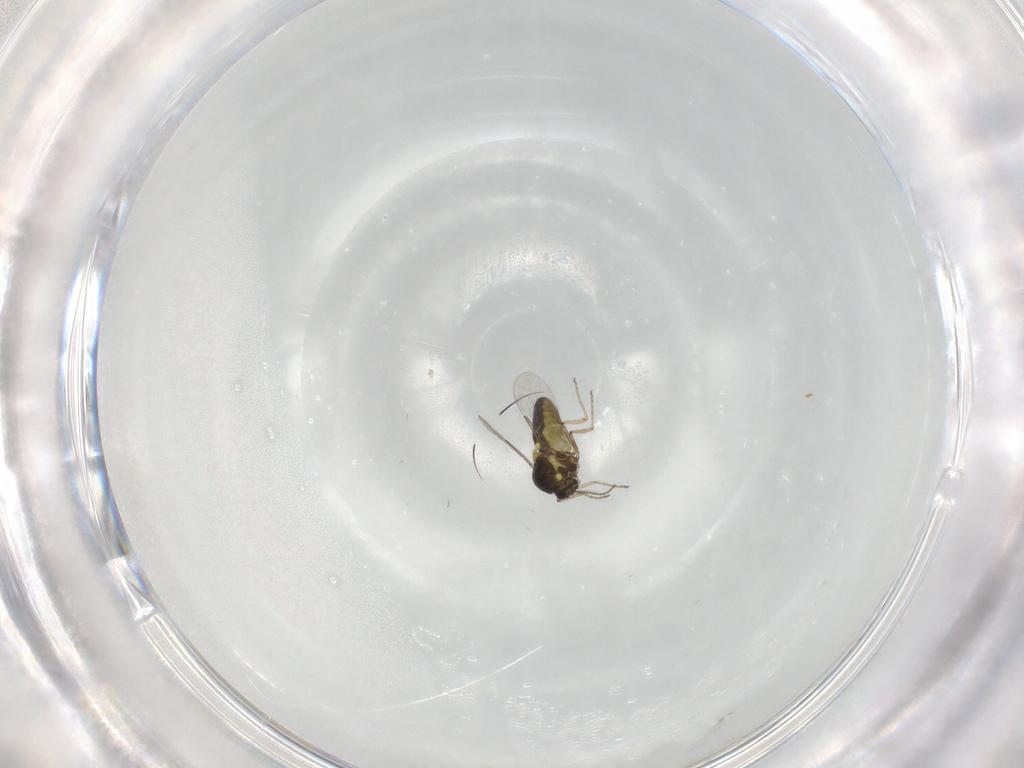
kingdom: Animalia
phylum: Arthropoda
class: Insecta
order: Diptera
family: Ceratopogonidae
